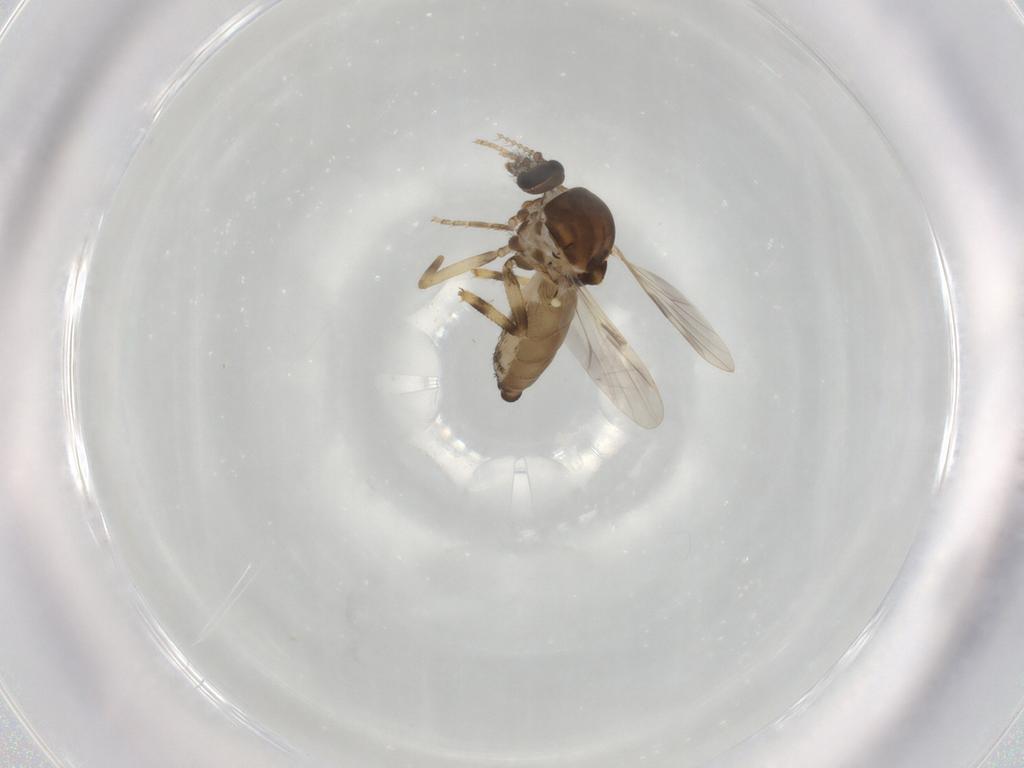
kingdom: Animalia
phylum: Arthropoda
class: Insecta
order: Diptera
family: Ceratopogonidae
